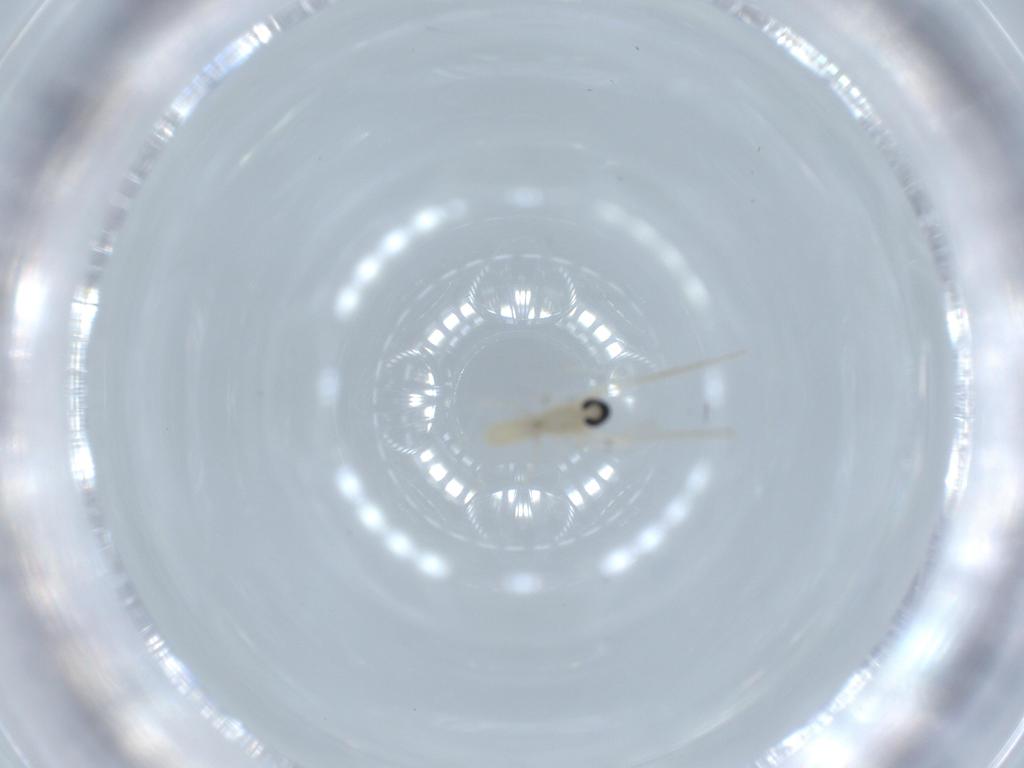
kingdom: Animalia
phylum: Arthropoda
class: Insecta
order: Diptera
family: Cecidomyiidae
